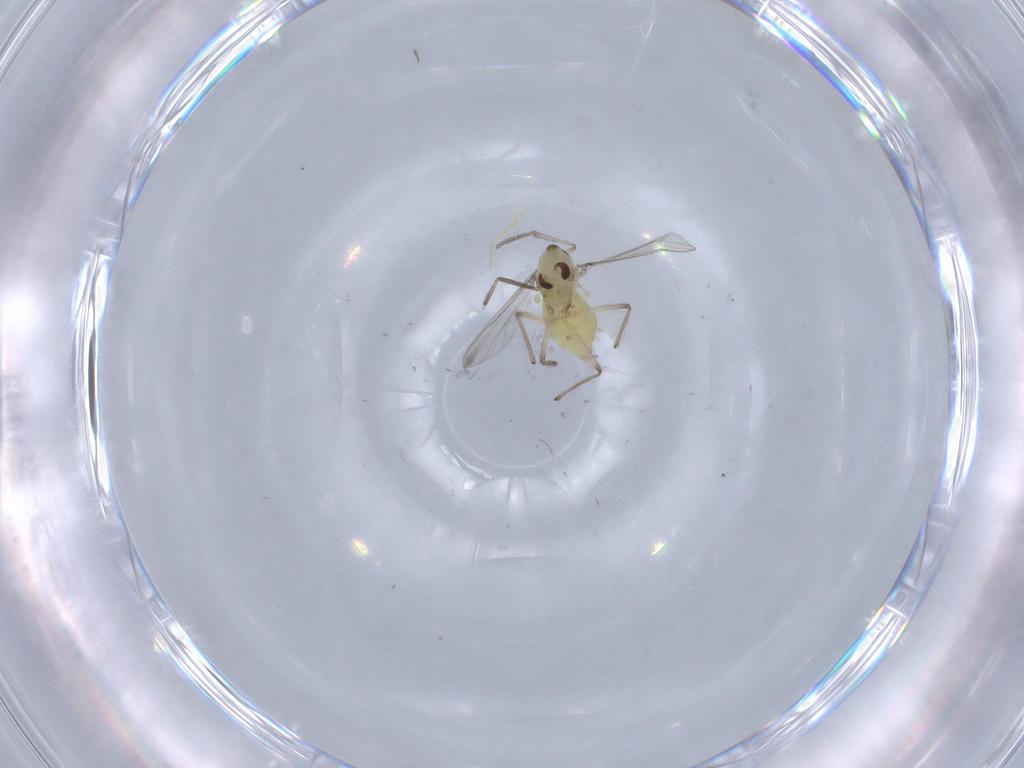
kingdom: Animalia
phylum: Arthropoda
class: Insecta
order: Diptera
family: Chironomidae
